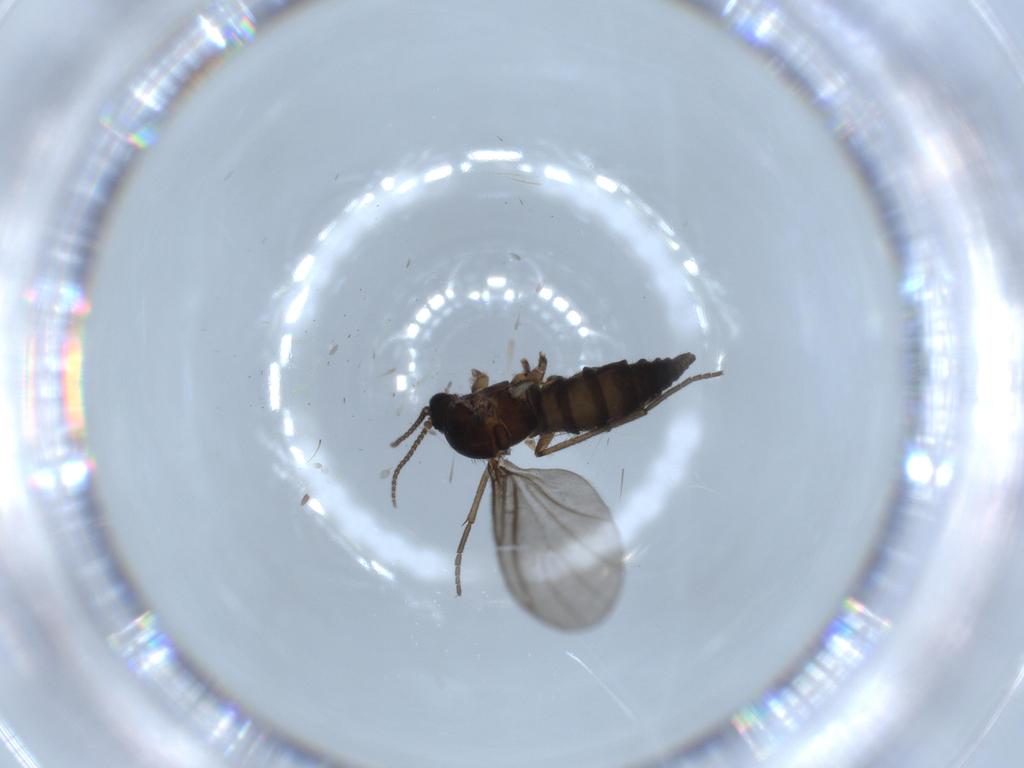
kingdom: Animalia
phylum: Arthropoda
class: Insecta
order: Diptera
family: Sciaridae
